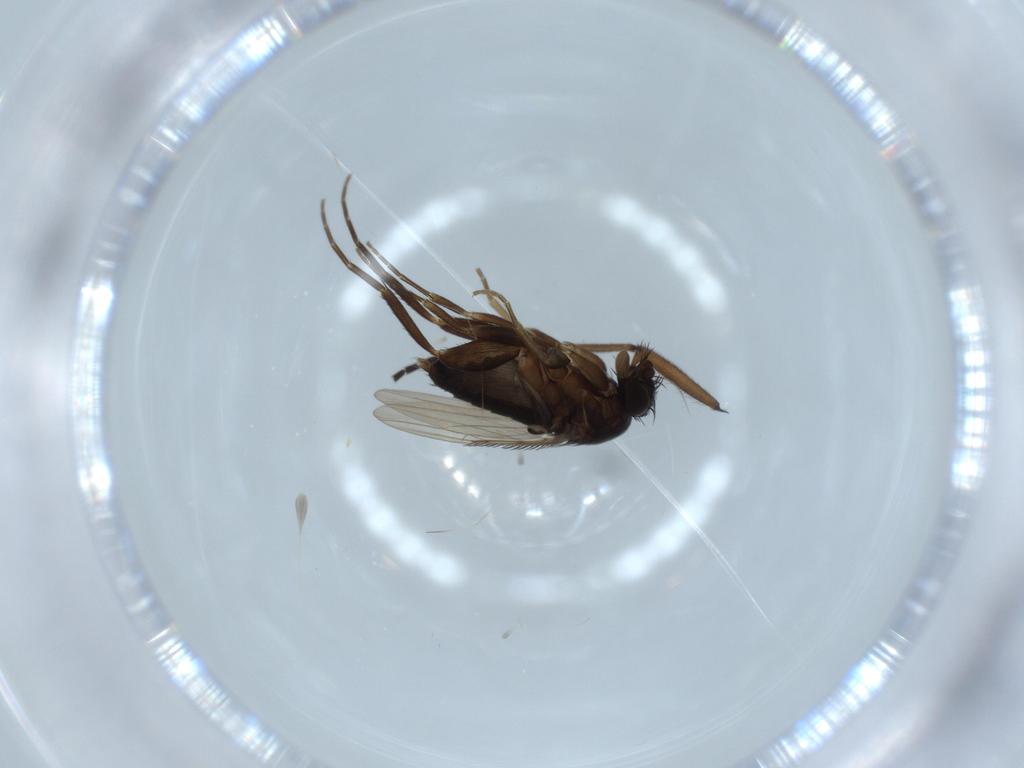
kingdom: Animalia
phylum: Arthropoda
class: Insecta
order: Diptera
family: Phoridae
